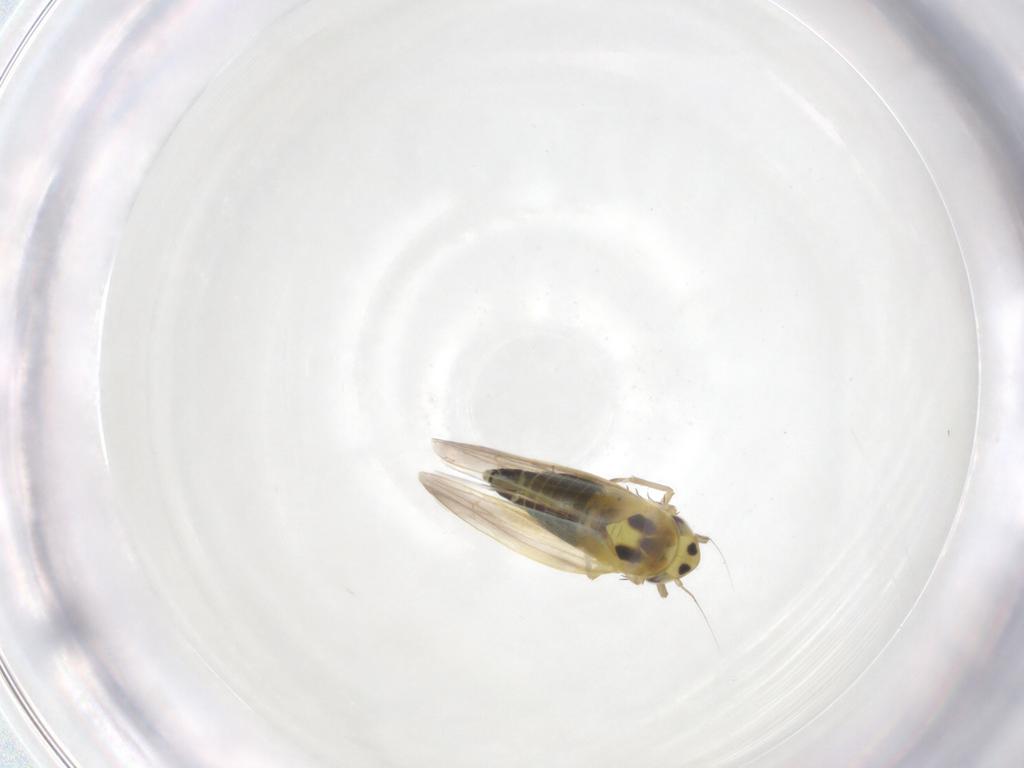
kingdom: Animalia
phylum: Arthropoda
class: Insecta
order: Hemiptera
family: Cicadellidae
